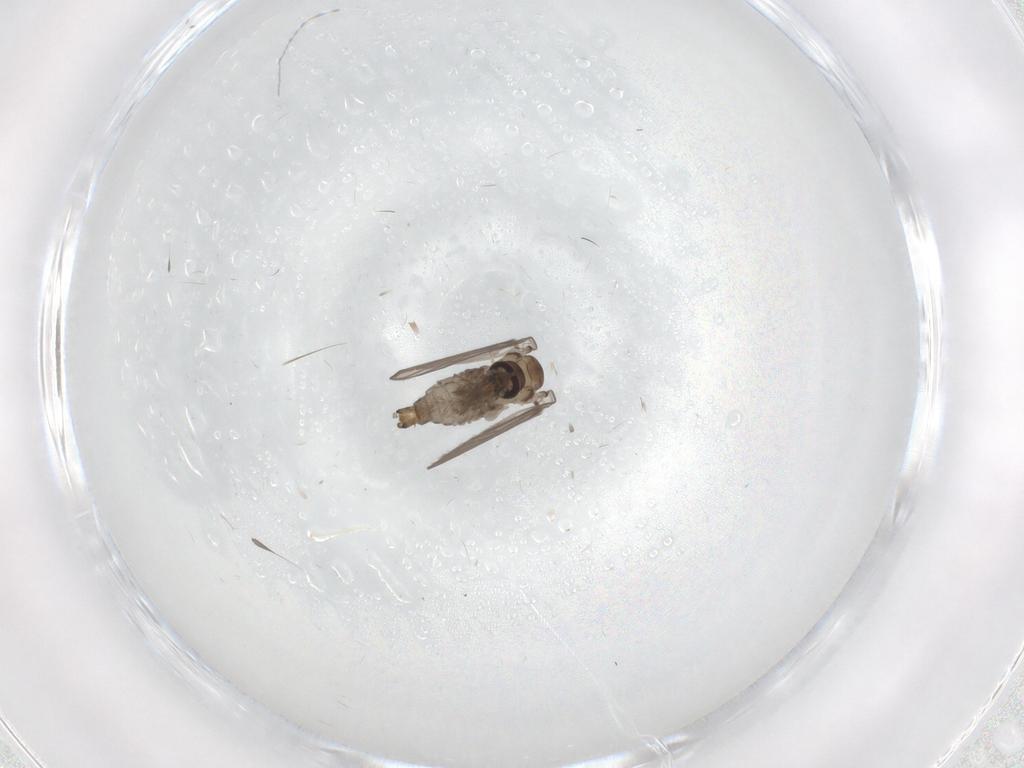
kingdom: Animalia
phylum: Arthropoda
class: Insecta
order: Diptera
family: Psychodidae
